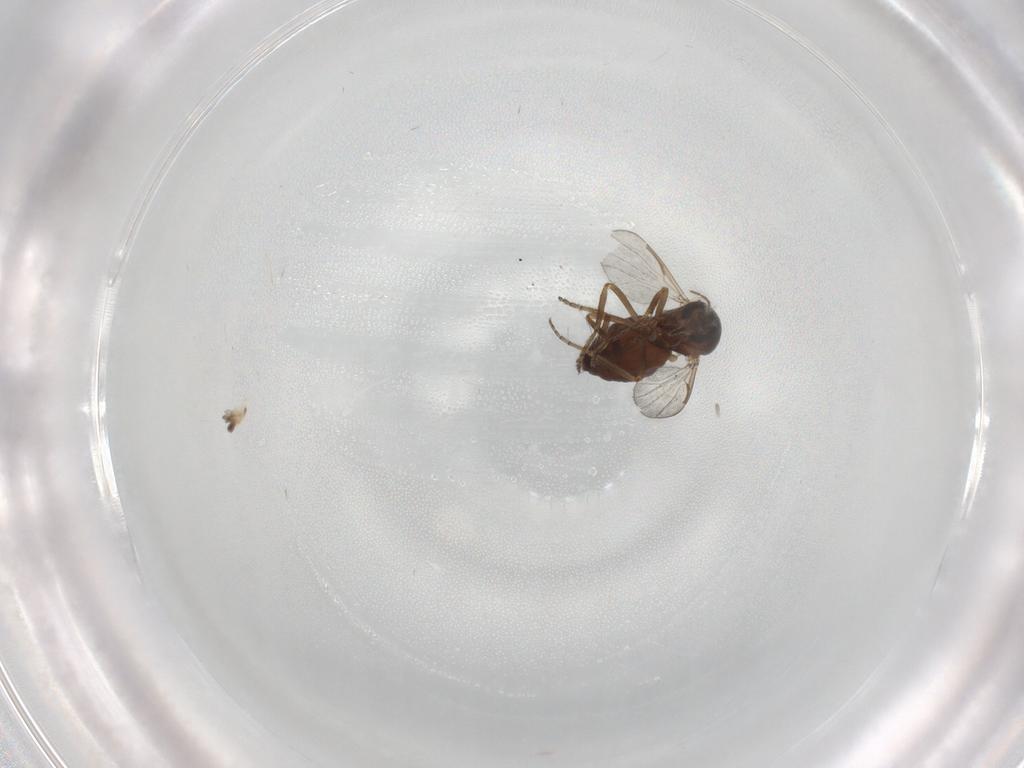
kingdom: Animalia
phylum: Arthropoda
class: Insecta
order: Diptera
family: Ceratopogonidae
